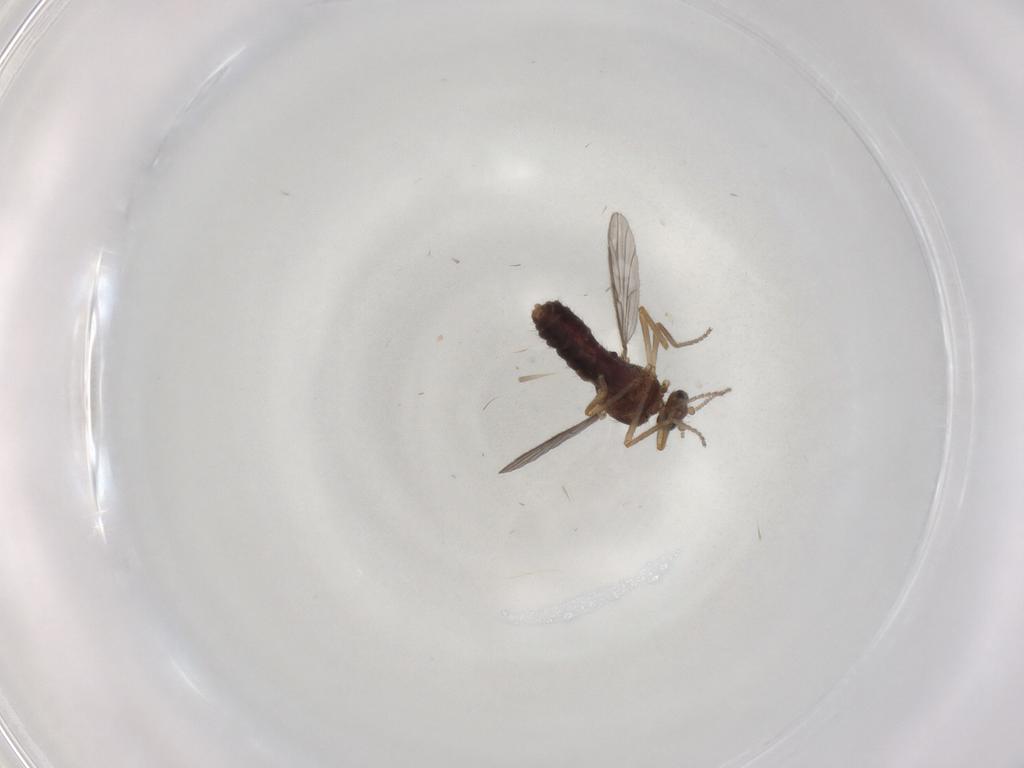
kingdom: Animalia
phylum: Arthropoda
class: Insecta
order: Diptera
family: Ceratopogonidae
